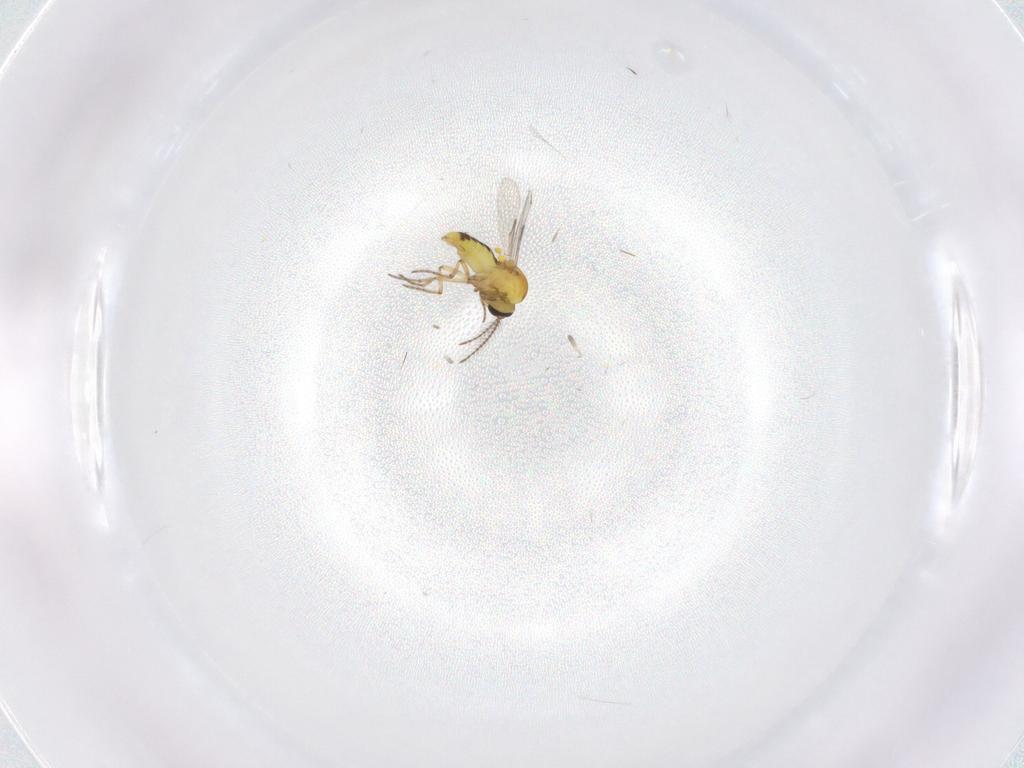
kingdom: Animalia
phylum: Arthropoda
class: Insecta
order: Diptera
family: Ceratopogonidae
